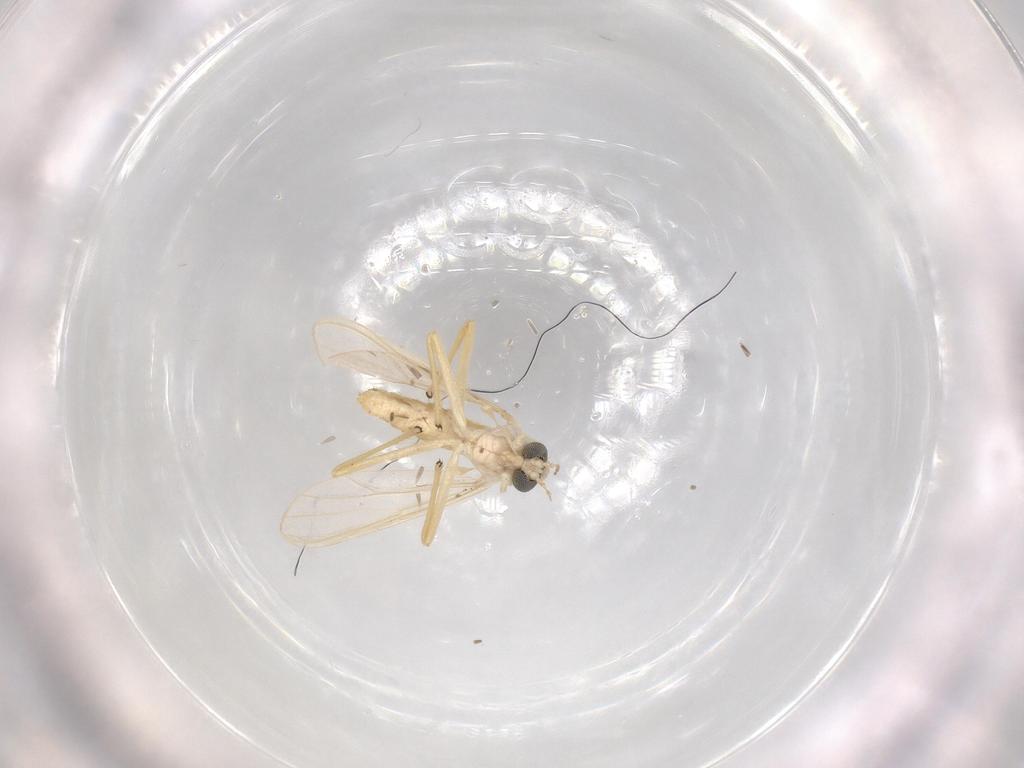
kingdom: Animalia
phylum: Arthropoda
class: Insecta
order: Diptera
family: Chironomidae
